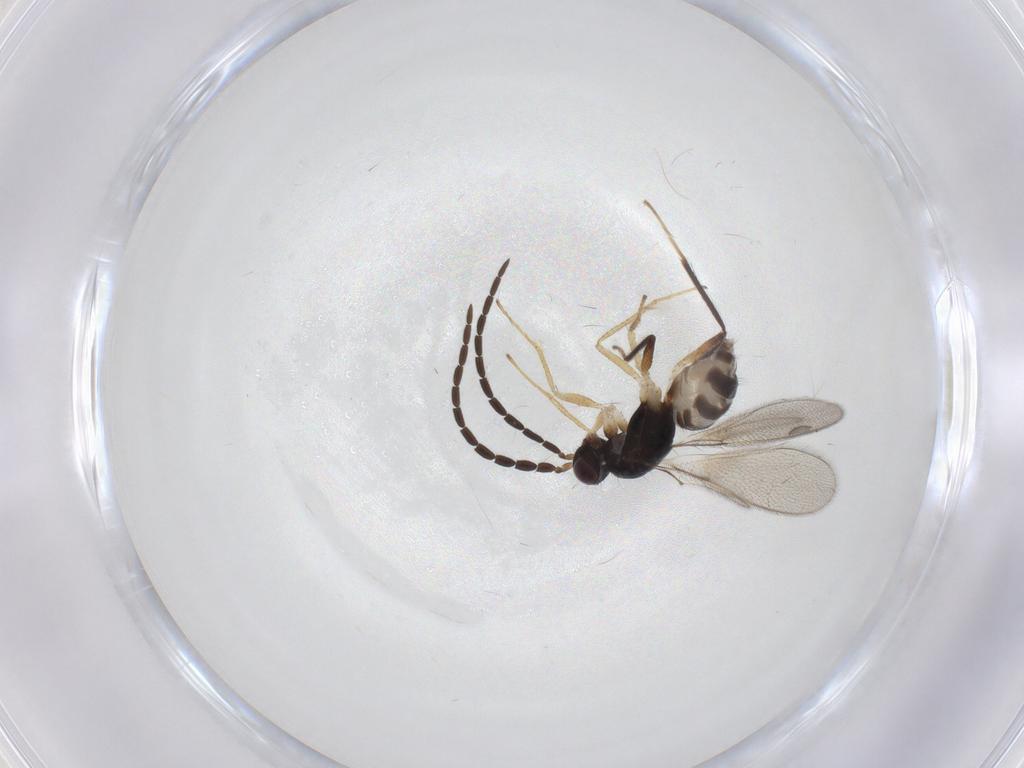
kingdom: Animalia
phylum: Arthropoda
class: Insecta
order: Hymenoptera
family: Mymaridae
